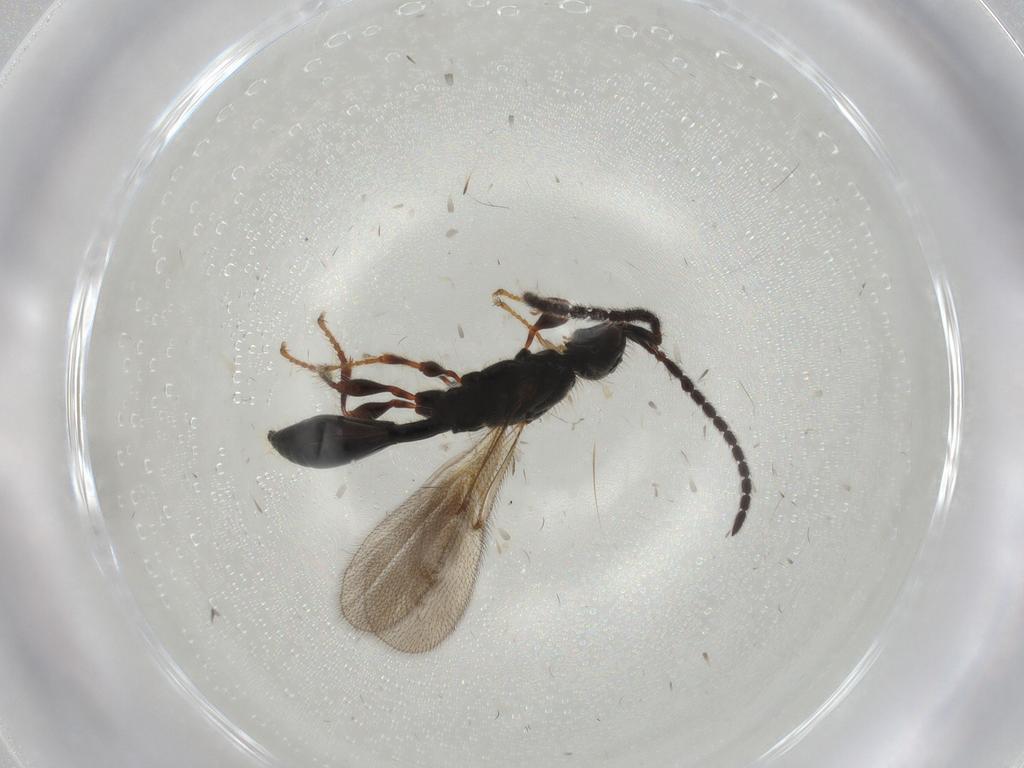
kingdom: Animalia
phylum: Arthropoda
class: Insecta
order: Hymenoptera
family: Diapriidae
